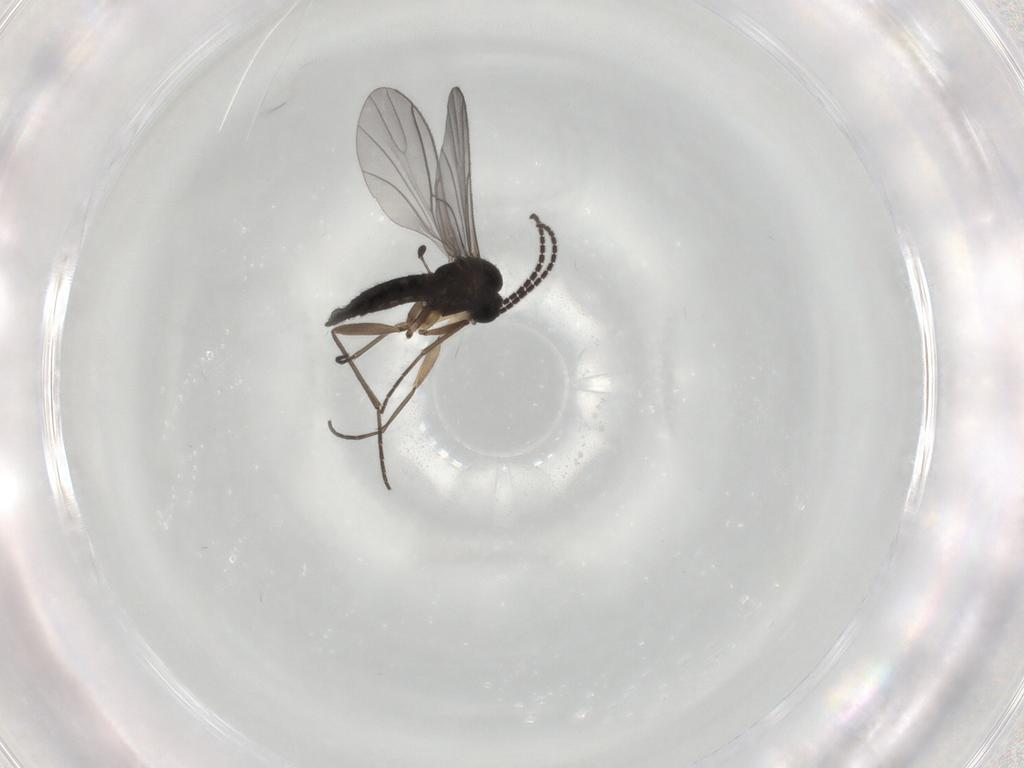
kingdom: Animalia
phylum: Arthropoda
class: Insecta
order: Diptera
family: Sciaridae
